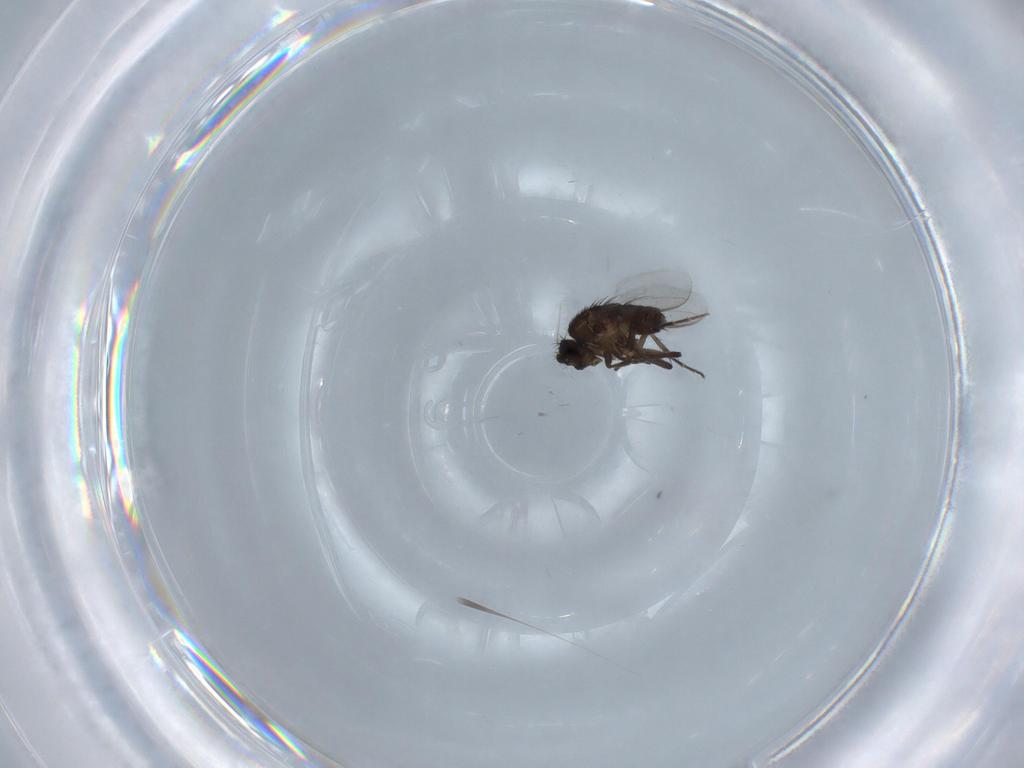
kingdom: Animalia
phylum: Arthropoda
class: Insecta
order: Diptera
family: Sphaeroceridae
